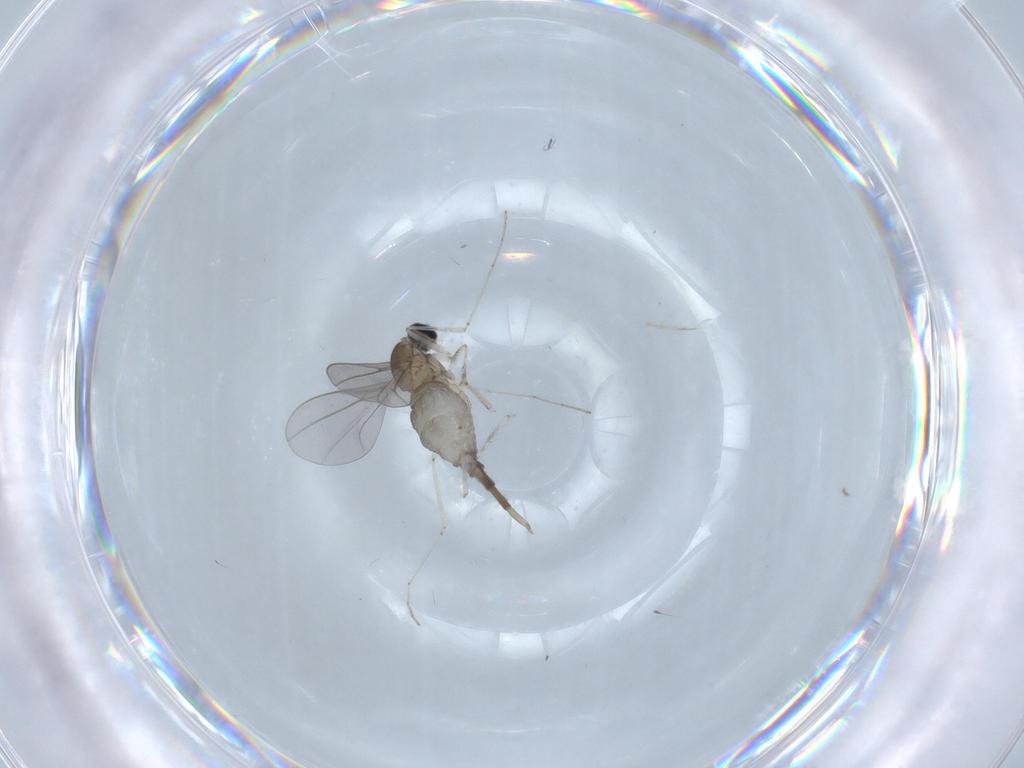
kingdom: Animalia
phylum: Arthropoda
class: Insecta
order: Diptera
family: Cecidomyiidae
